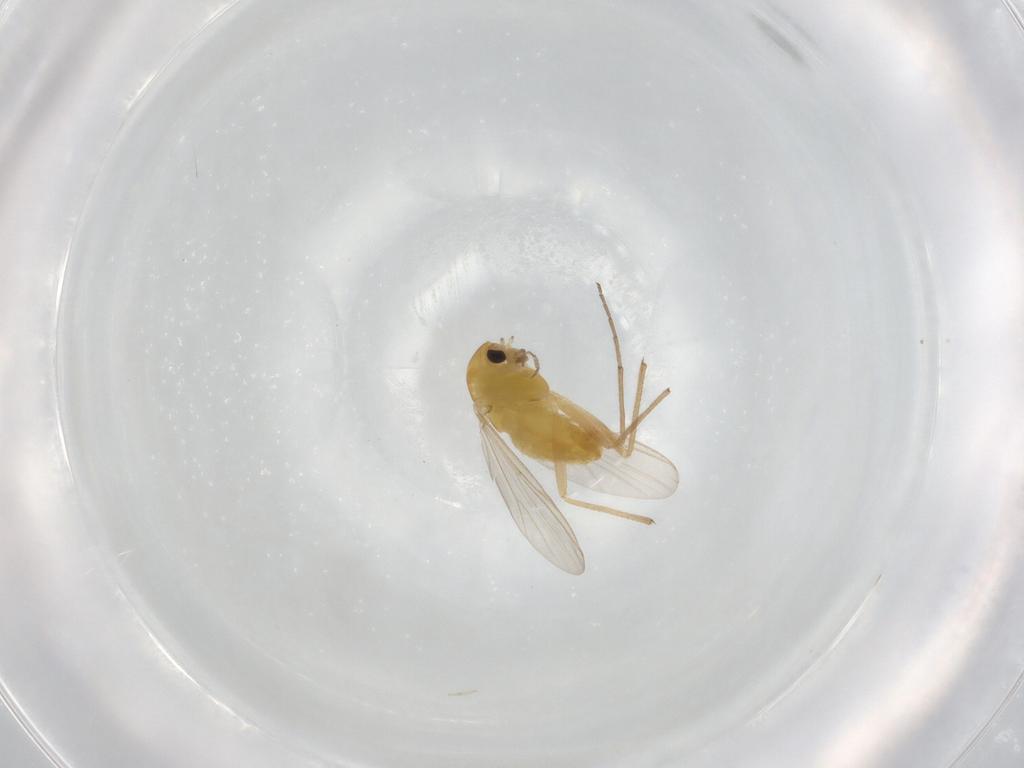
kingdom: Animalia
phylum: Arthropoda
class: Insecta
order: Diptera
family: Chironomidae
